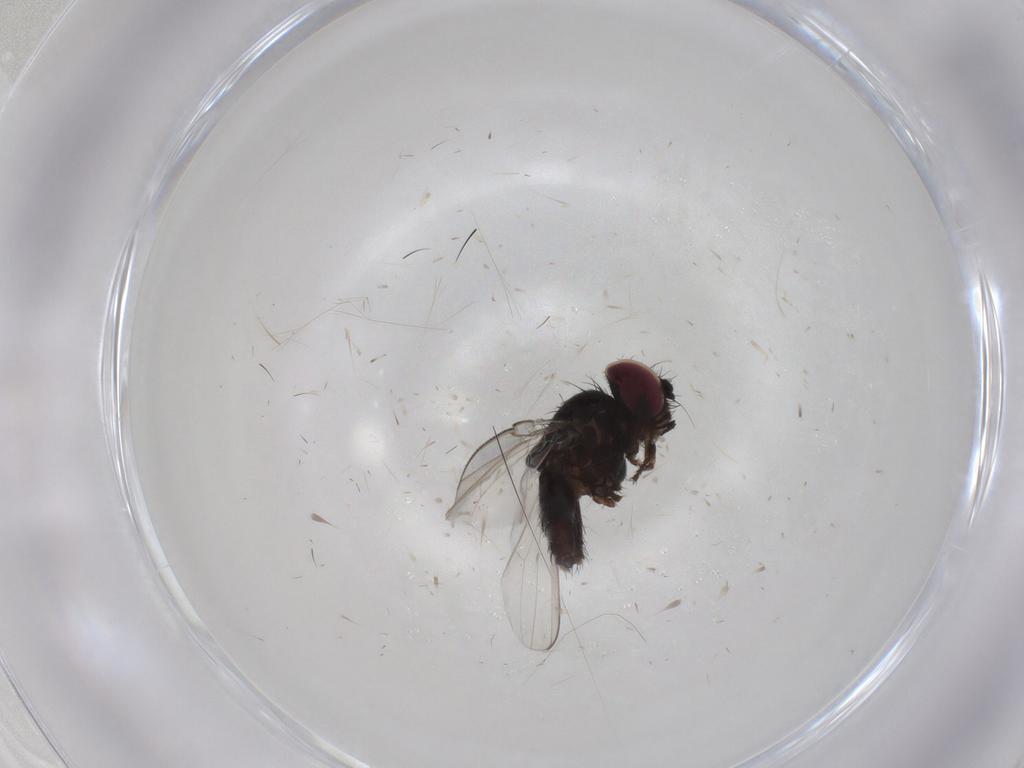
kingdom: Animalia
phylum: Arthropoda
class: Insecta
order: Diptera
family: Milichiidae
